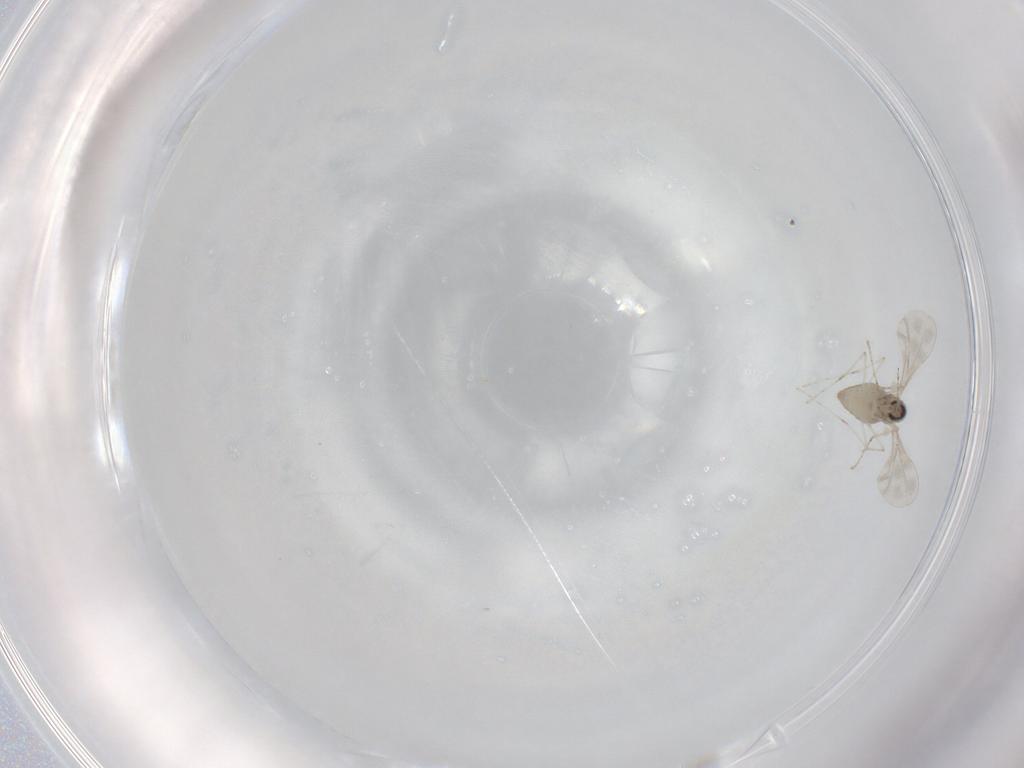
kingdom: Animalia
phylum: Arthropoda
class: Insecta
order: Diptera
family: Cecidomyiidae
